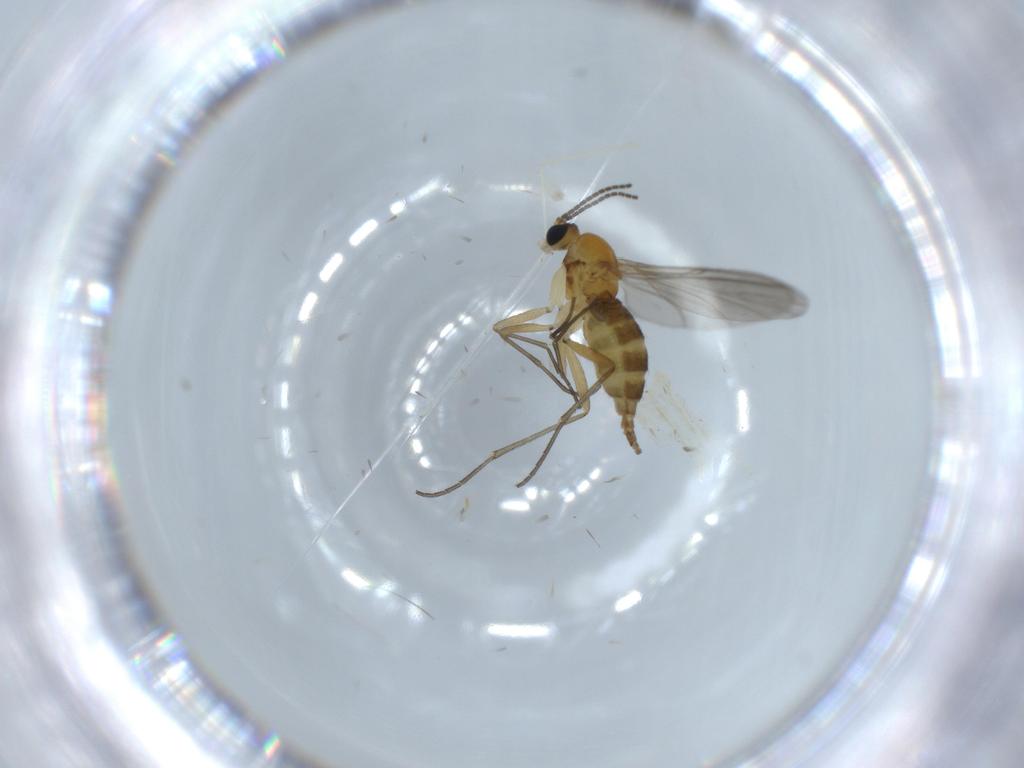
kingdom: Animalia
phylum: Arthropoda
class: Insecta
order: Diptera
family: Cecidomyiidae
